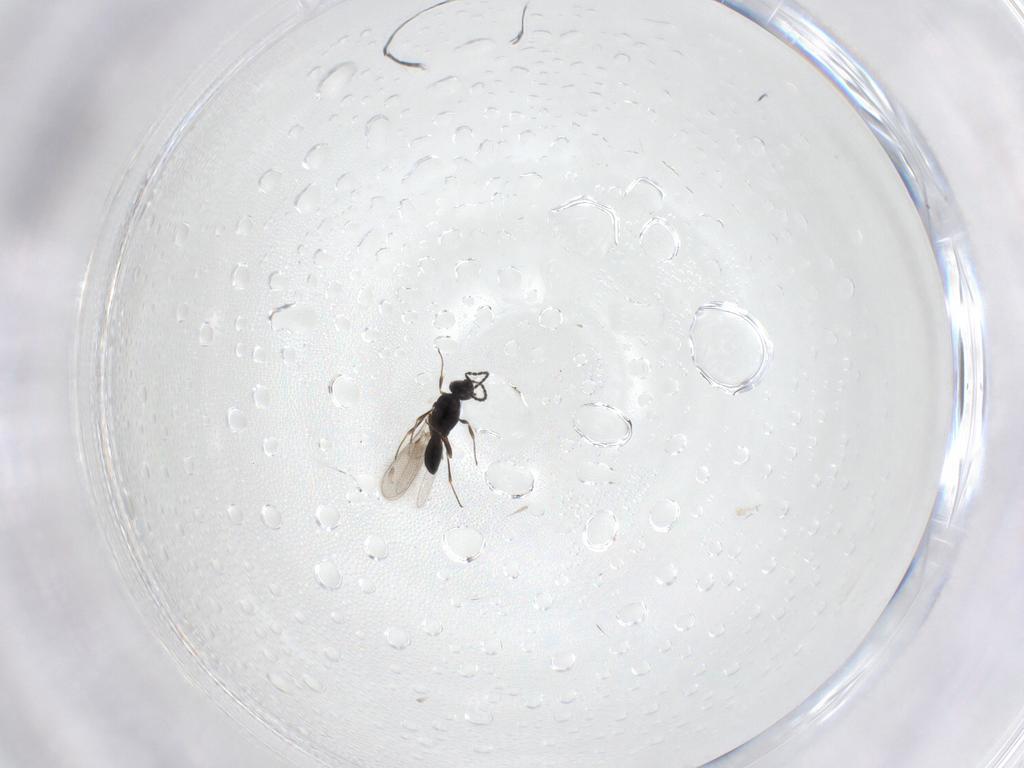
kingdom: Animalia
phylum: Arthropoda
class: Insecta
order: Hymenoptera
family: Scelionidae
